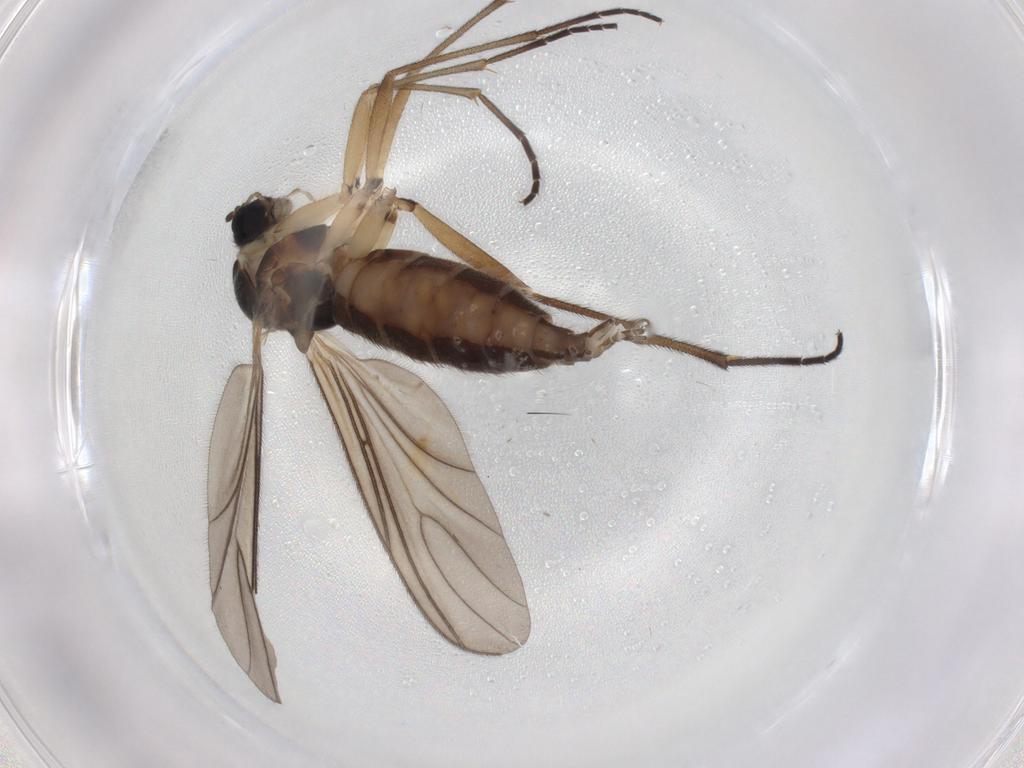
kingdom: Animalia
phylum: Arthropoda
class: Insecta
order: Diptera
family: Sciaridae
